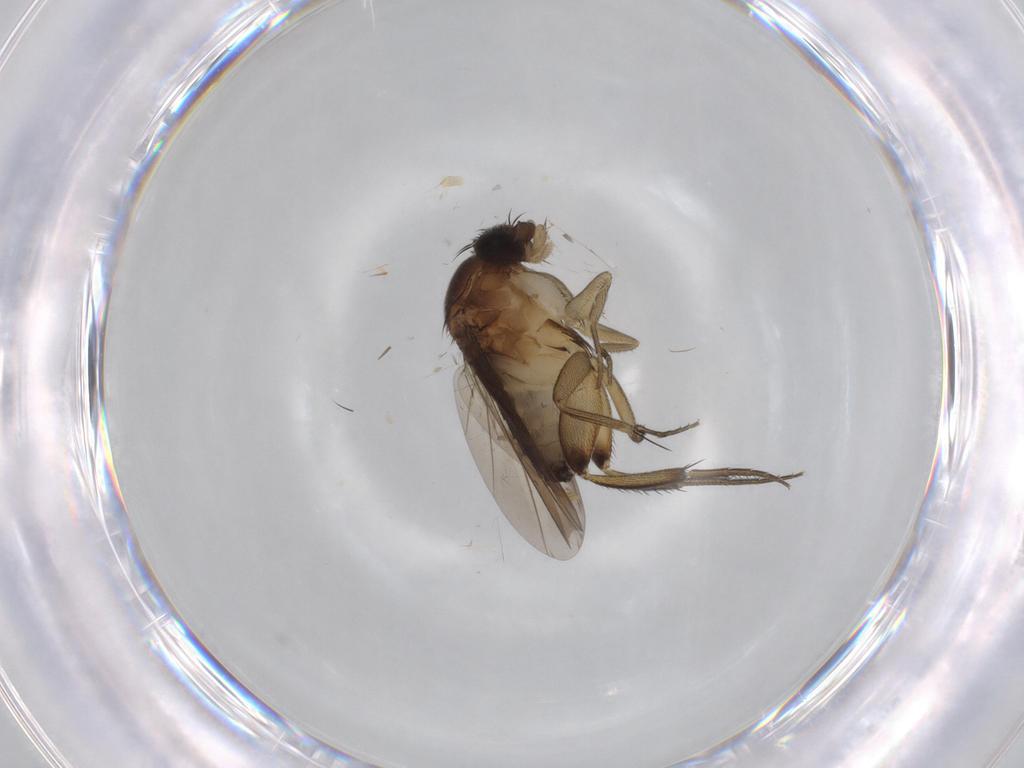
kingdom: Animalia
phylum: Arthropoda
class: Insecta
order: Diptera
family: Phoridae
